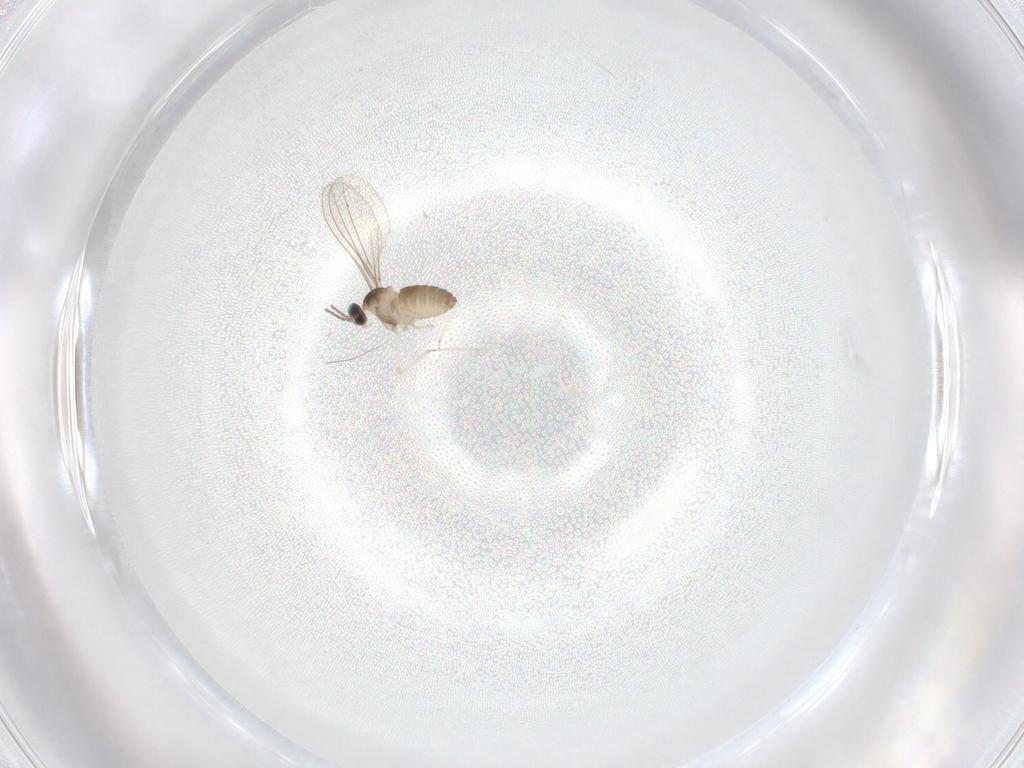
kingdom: Animalia
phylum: Arthropoda
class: Insecta
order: Diptera
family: Cecidomyiidae
